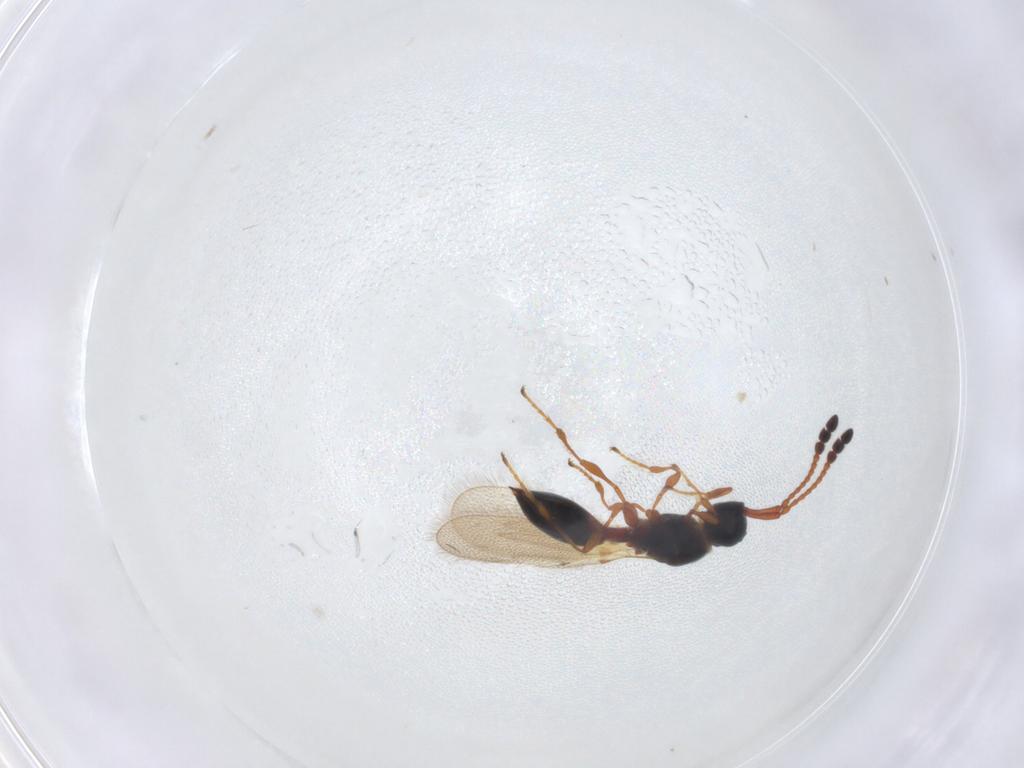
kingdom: Animalia
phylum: Arthropoda
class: Insecta
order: Hymenoptera
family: Diapriidae
